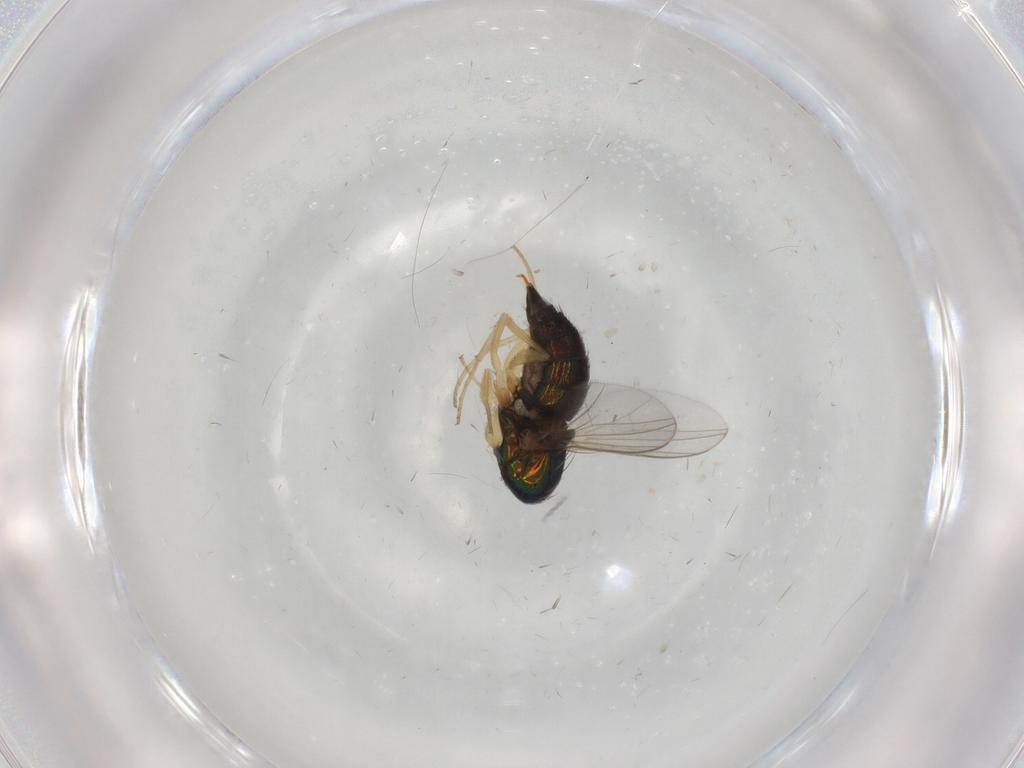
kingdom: Animalia
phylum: Arthropoda
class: Insecta
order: Diptera
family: Dolichopodidae
